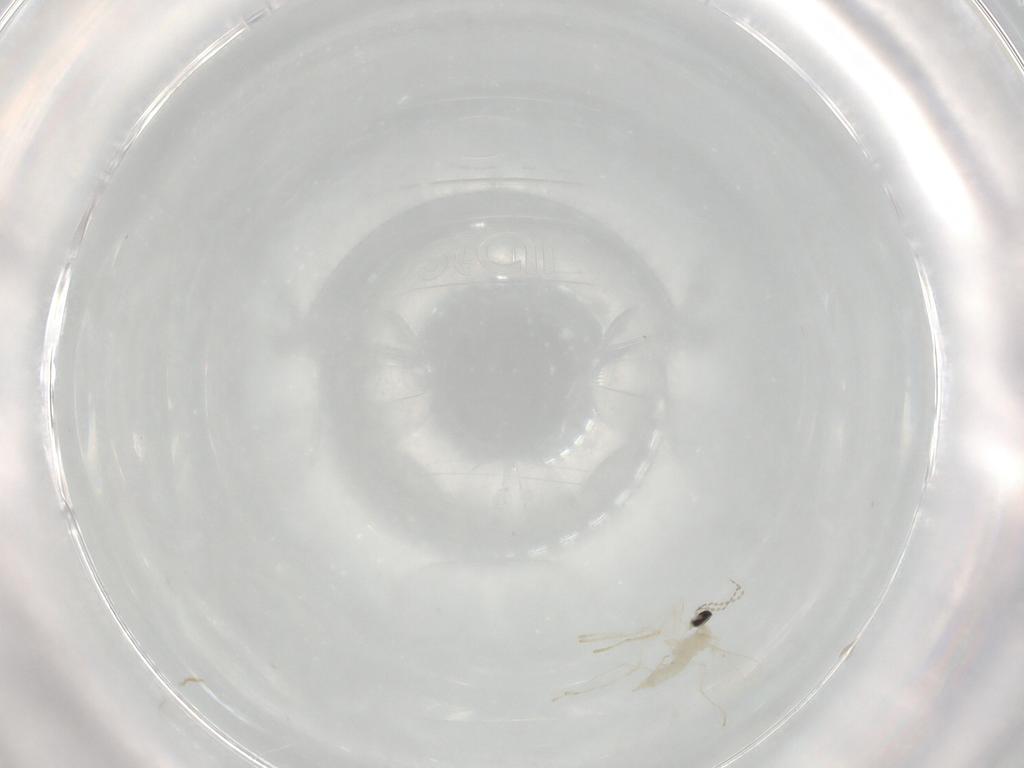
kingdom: Animalia
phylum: Arthropoda
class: Insecta
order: Diptera
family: Cecidomyiidae
